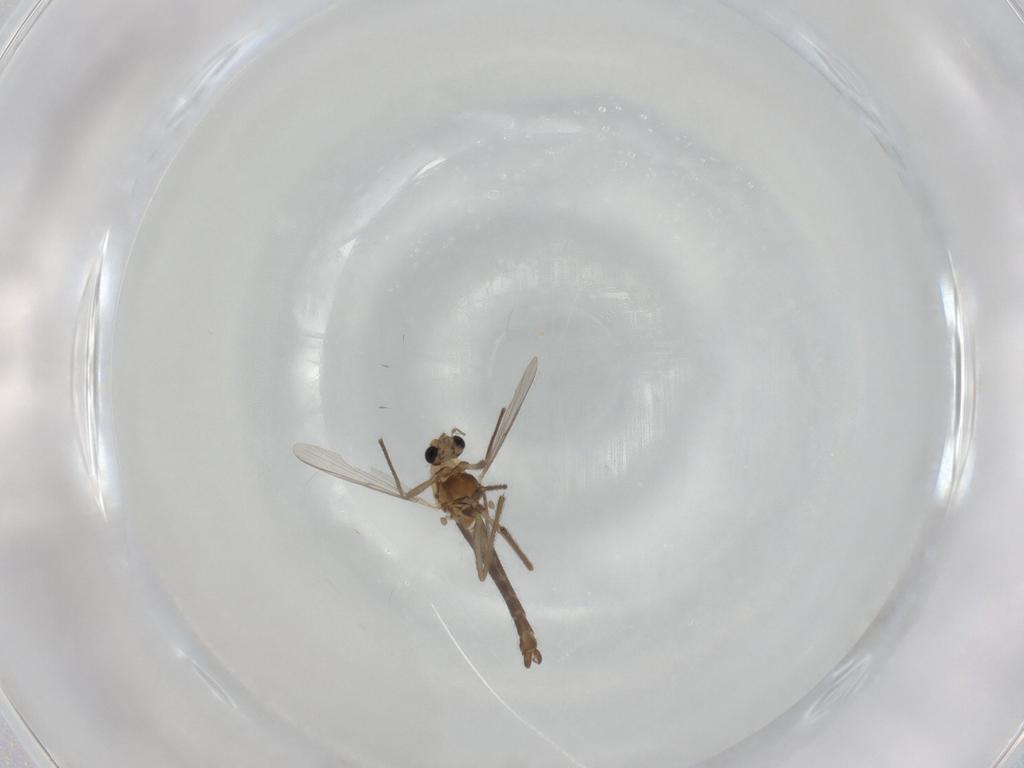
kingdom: Animalia
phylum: Arthropoda
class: Insecta
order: Diptera
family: Chironomidae
